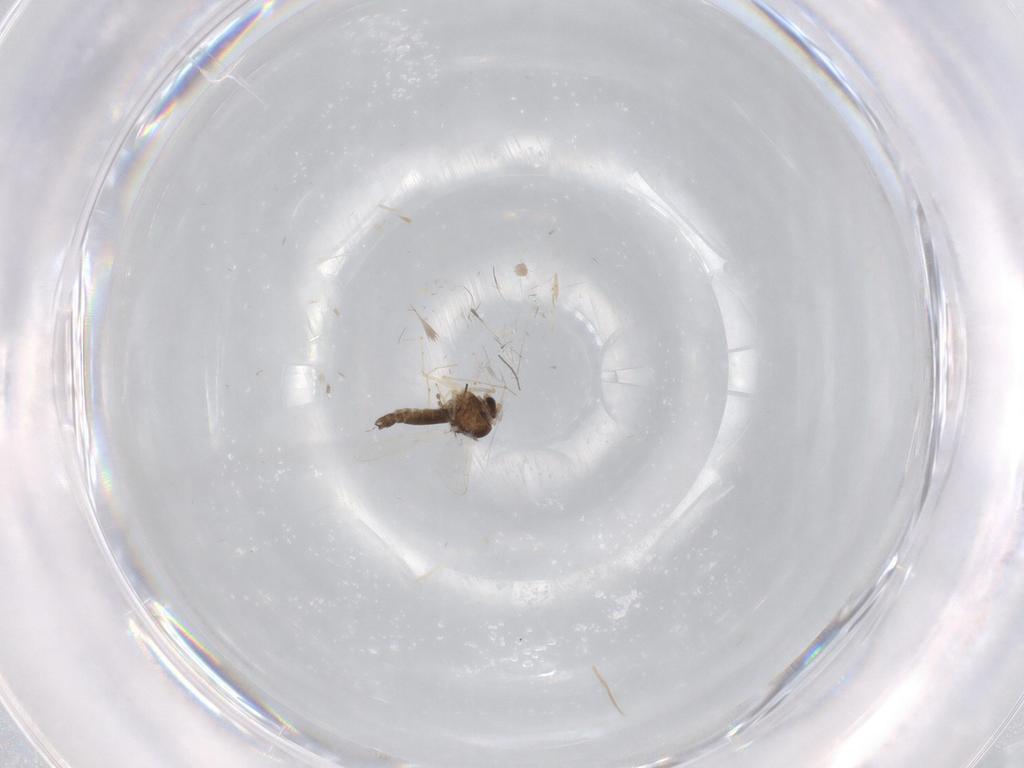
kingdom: Animalia
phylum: Arthropoda
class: Insecta
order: Diptera
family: Chironomidae
